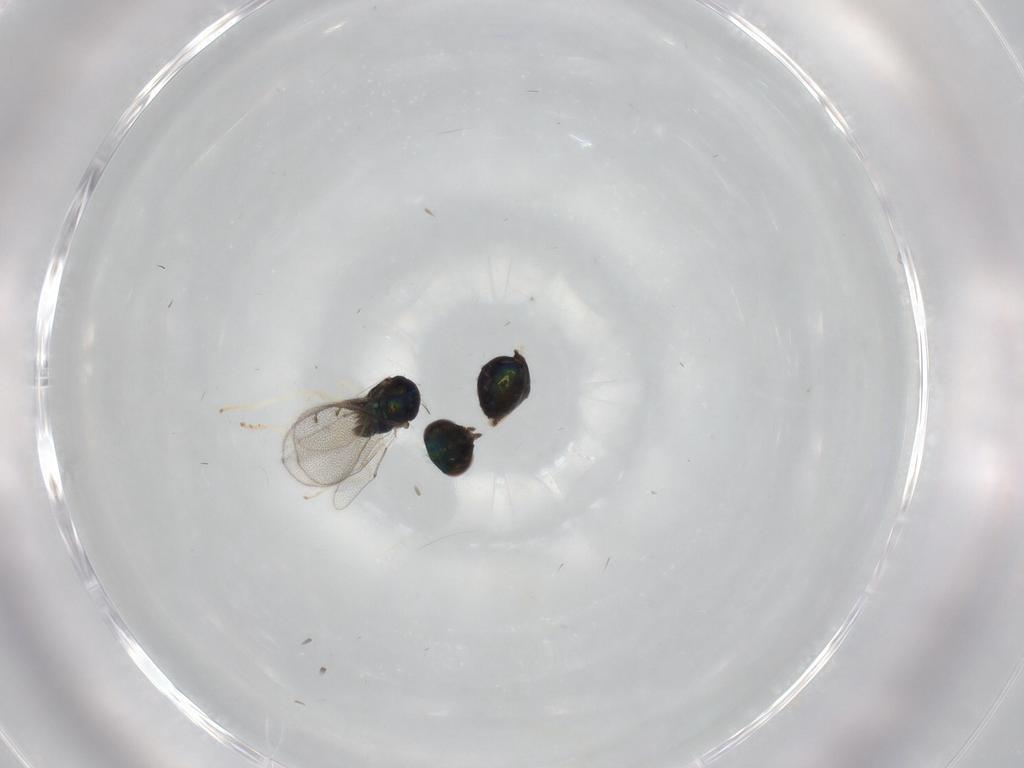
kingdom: Animalia
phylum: Arthropoda
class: Insecta
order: Hymenoptera
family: Eulophidae
